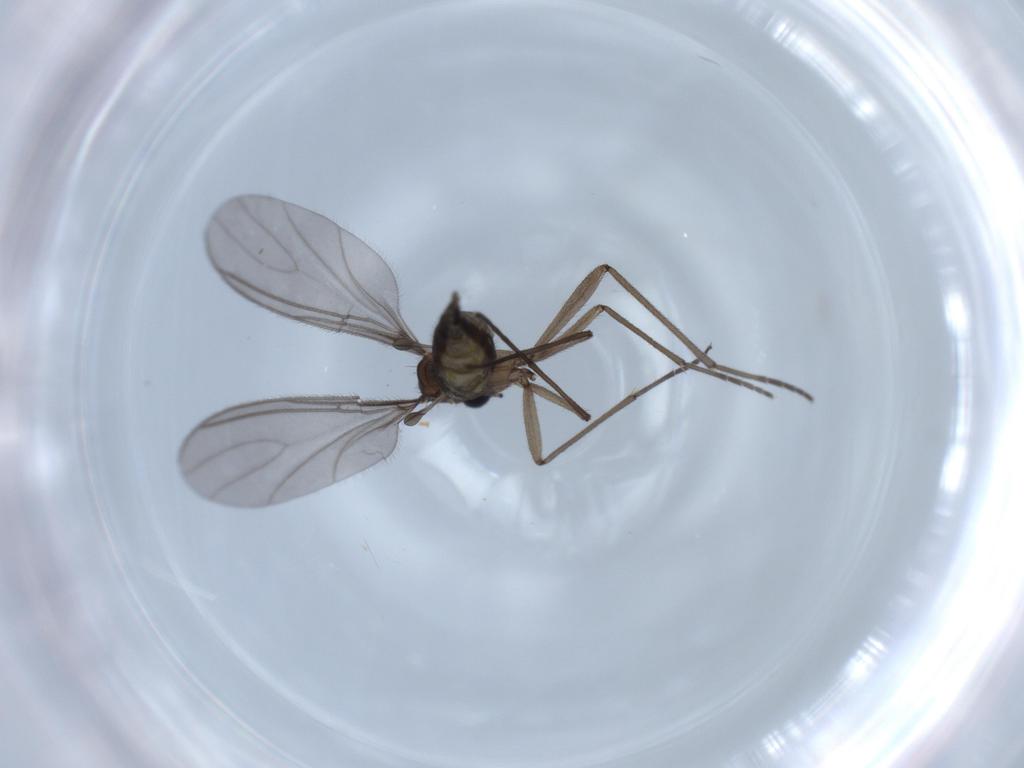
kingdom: Animalia
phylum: Arthropoda
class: Insecta
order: Diptera
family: Sciaridae
